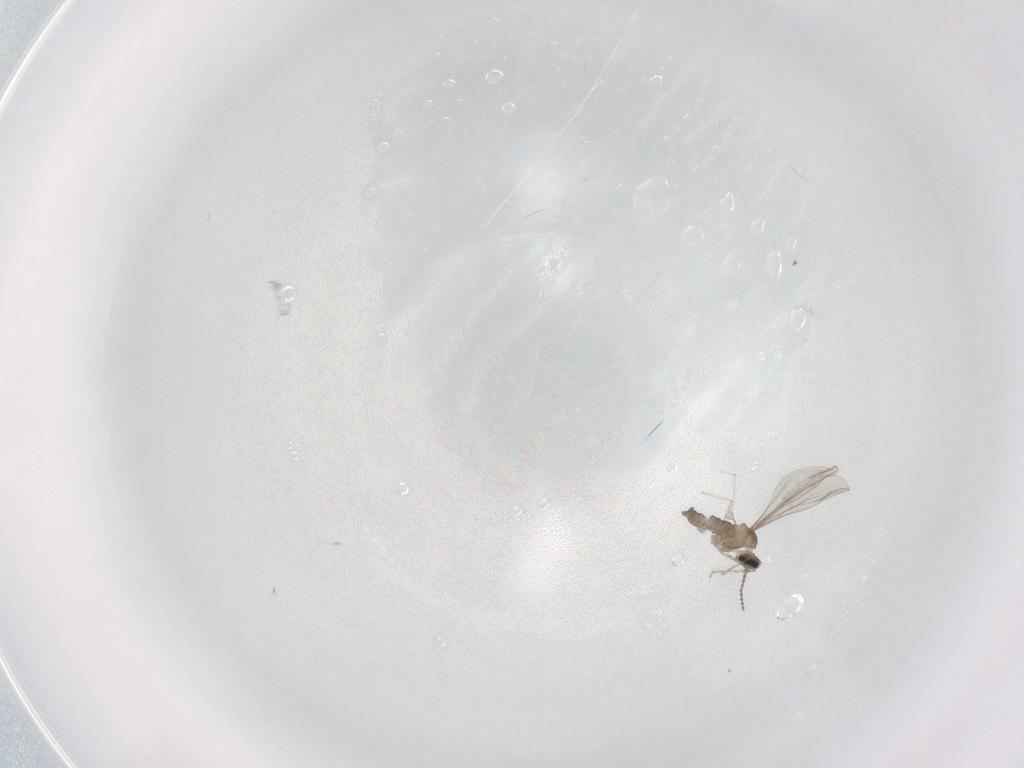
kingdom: Animalia
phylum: Arthropoda
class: Insecta
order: Diptera
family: Cecidomyiidae
